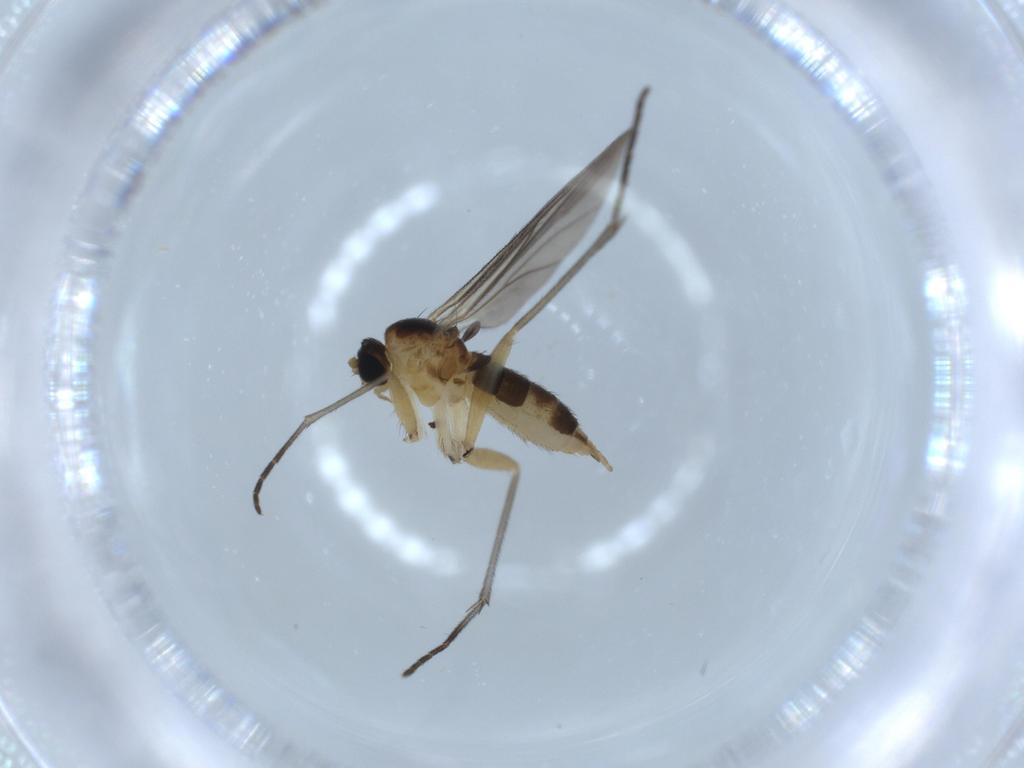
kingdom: Animalia
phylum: Arthropoda
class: Insecta
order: Diptera
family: Sciaridae
